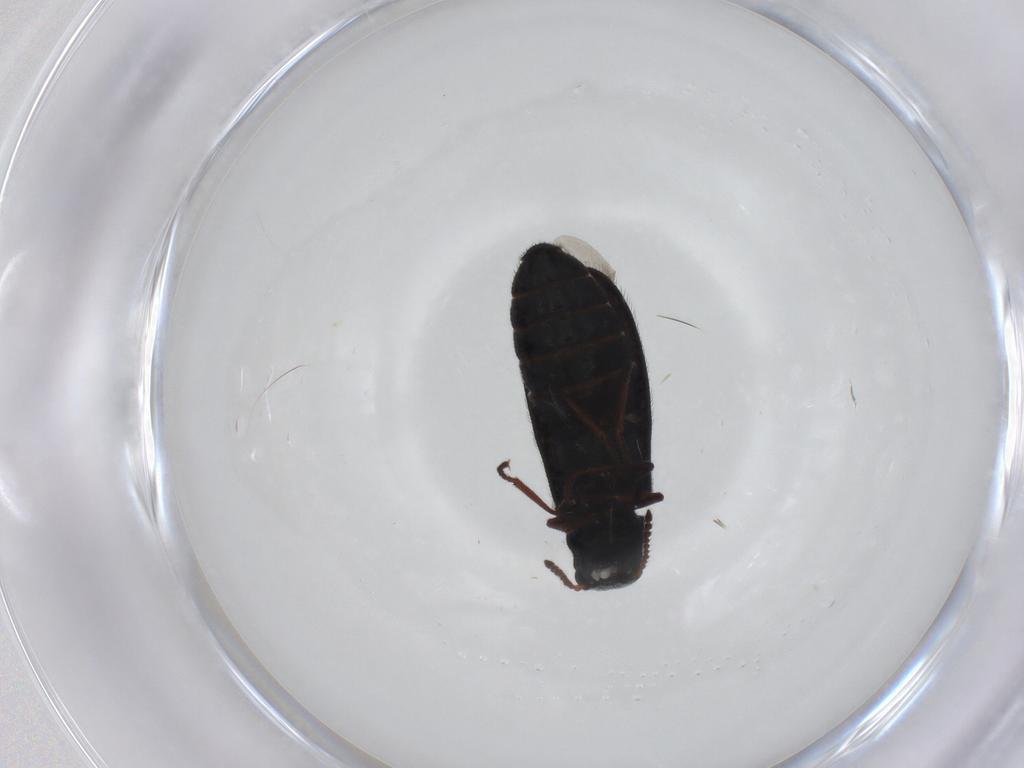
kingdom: Animalia
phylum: Arthropoda
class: Insecta
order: Coleoptera
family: Melyridae
